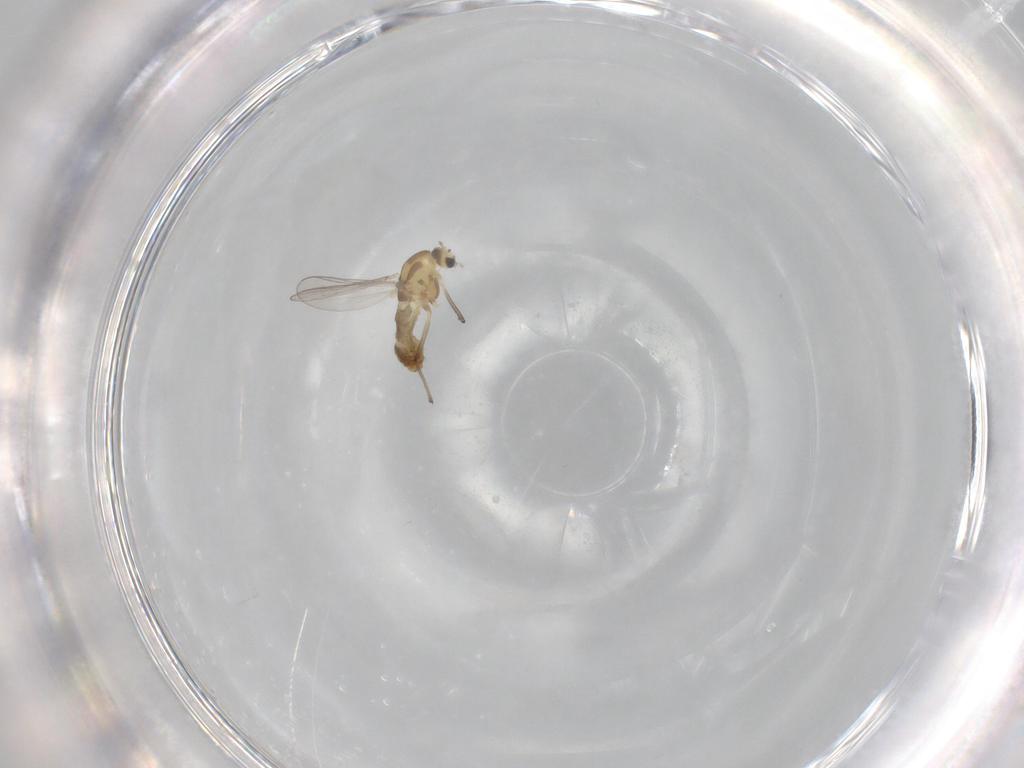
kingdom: Animalia
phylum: Arthropoda
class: Insecta
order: Diptera
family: Chironomidae
